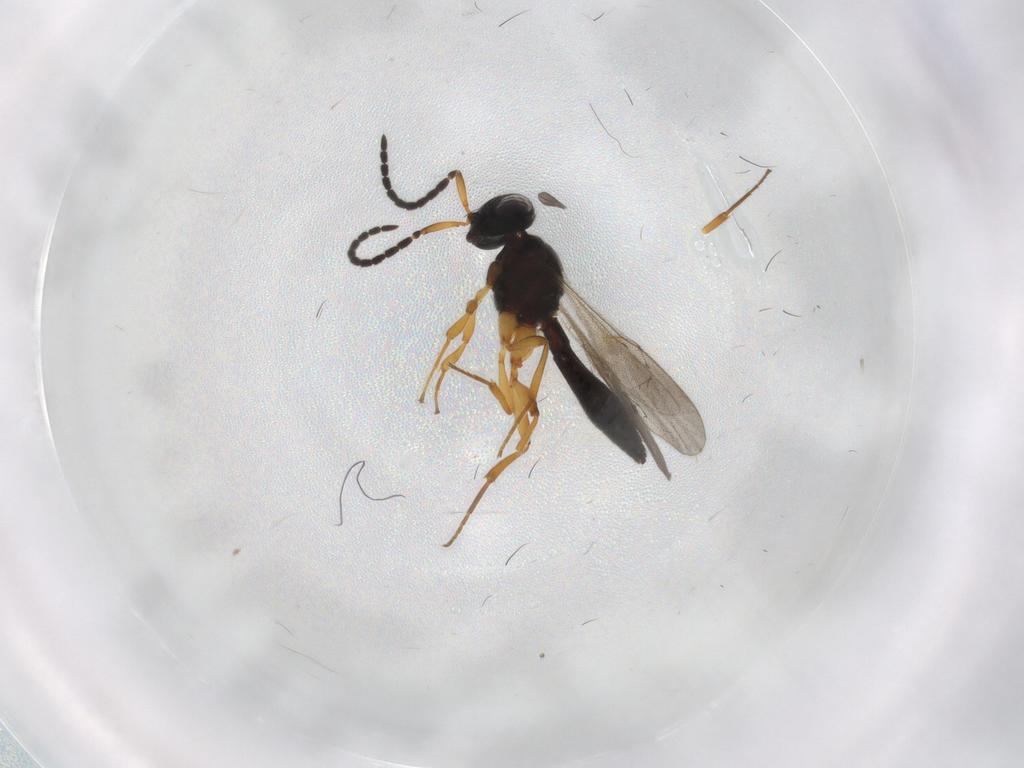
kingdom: Animalia
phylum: Arthropoda
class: Insecta
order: Hymenoptera
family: Scelionidae
